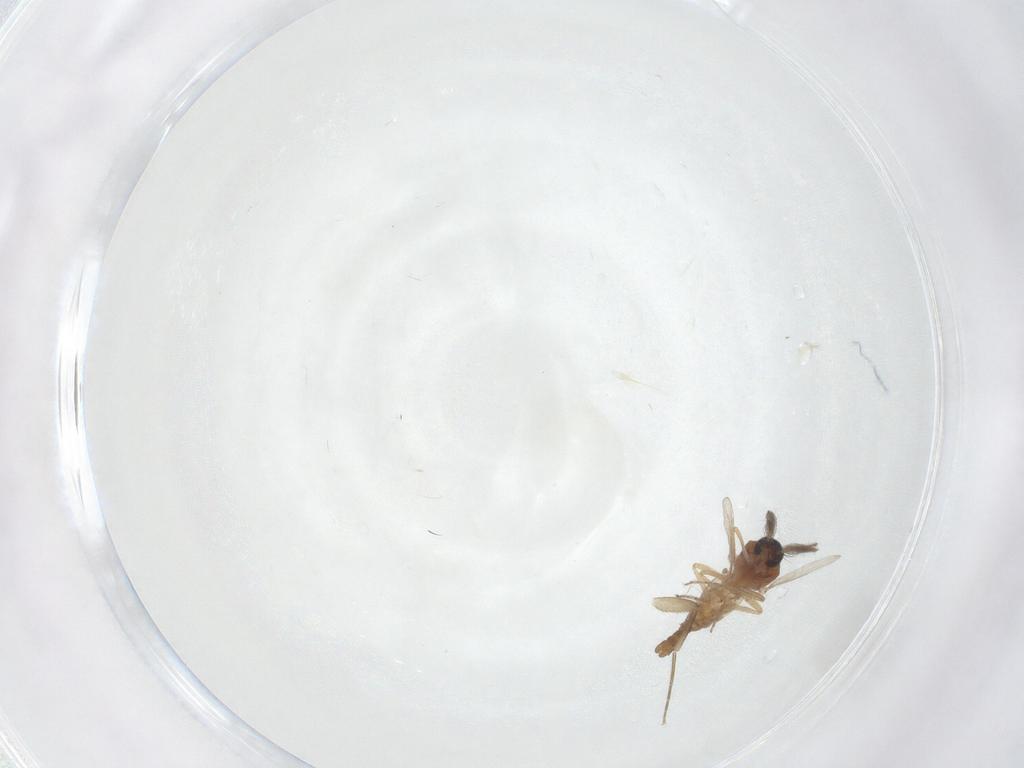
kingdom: Animalia
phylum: Arthropoda
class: Insecta
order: Diptera
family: Ceratopogonidae
